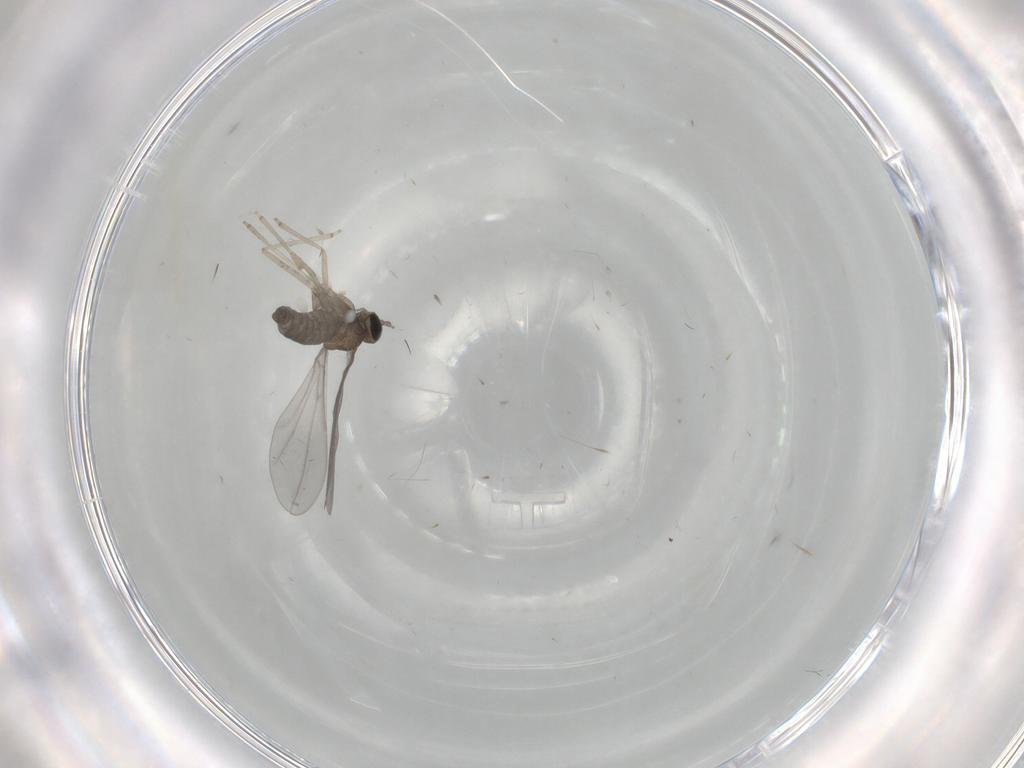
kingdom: Animalia
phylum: Arthropoda
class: Insecta
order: Diptera
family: Cecidomyiidae
